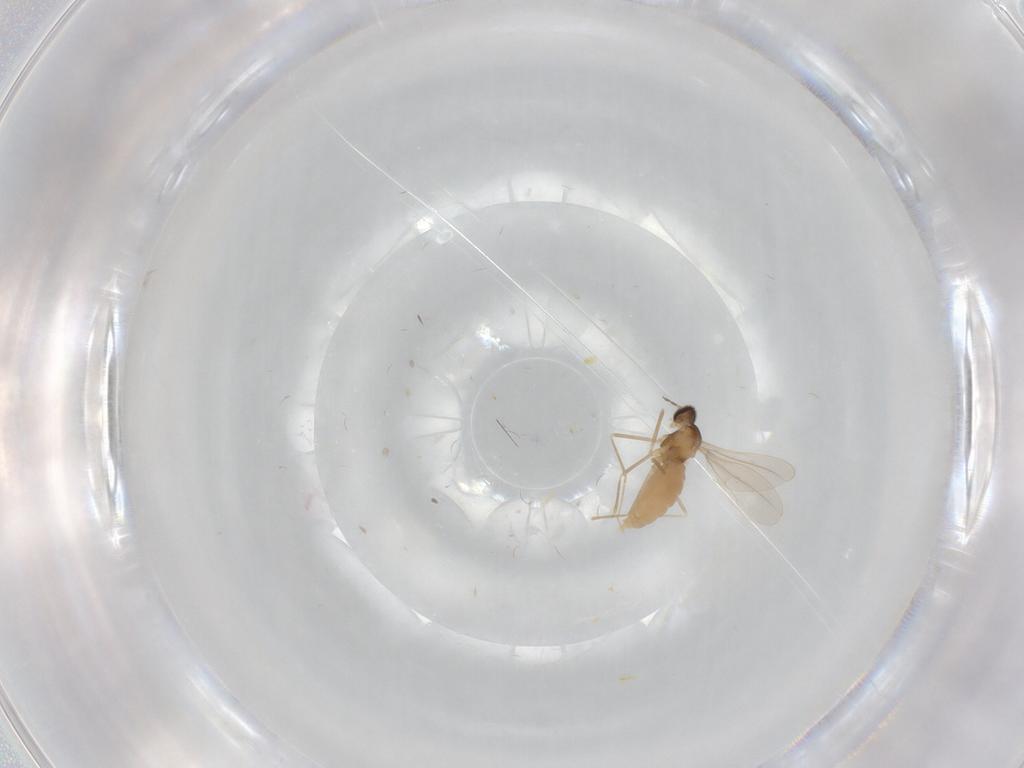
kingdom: Animalia
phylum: Arthropoda
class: Insecta
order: Diptera
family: Cecidomyiidae
